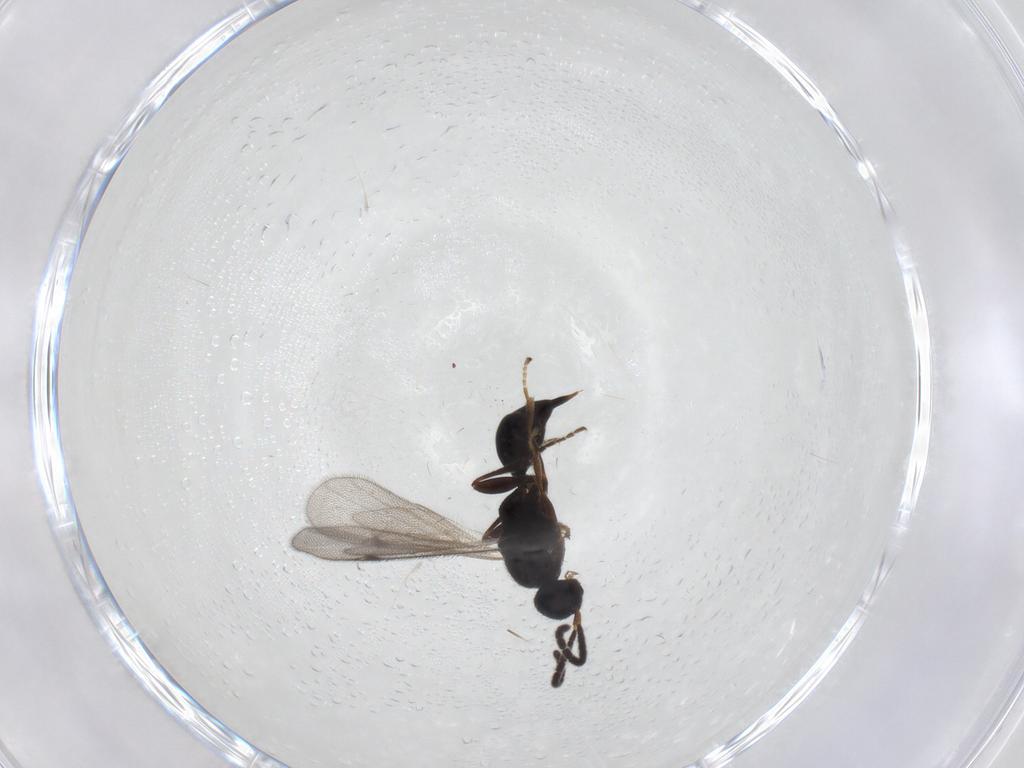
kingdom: Animalia
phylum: Arthropoda
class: Insecta
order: Hymenoptera
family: Proctotrupidae
